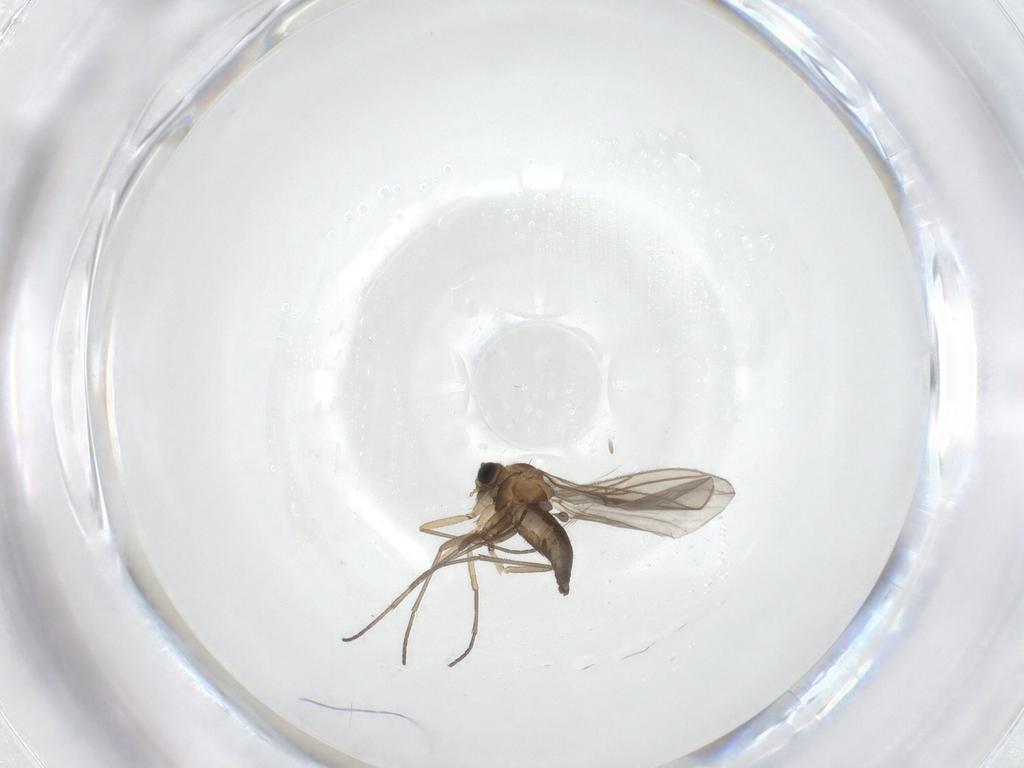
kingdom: Animalia
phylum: Arthropoda
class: Insecta
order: Diptera
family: Sciaridae
